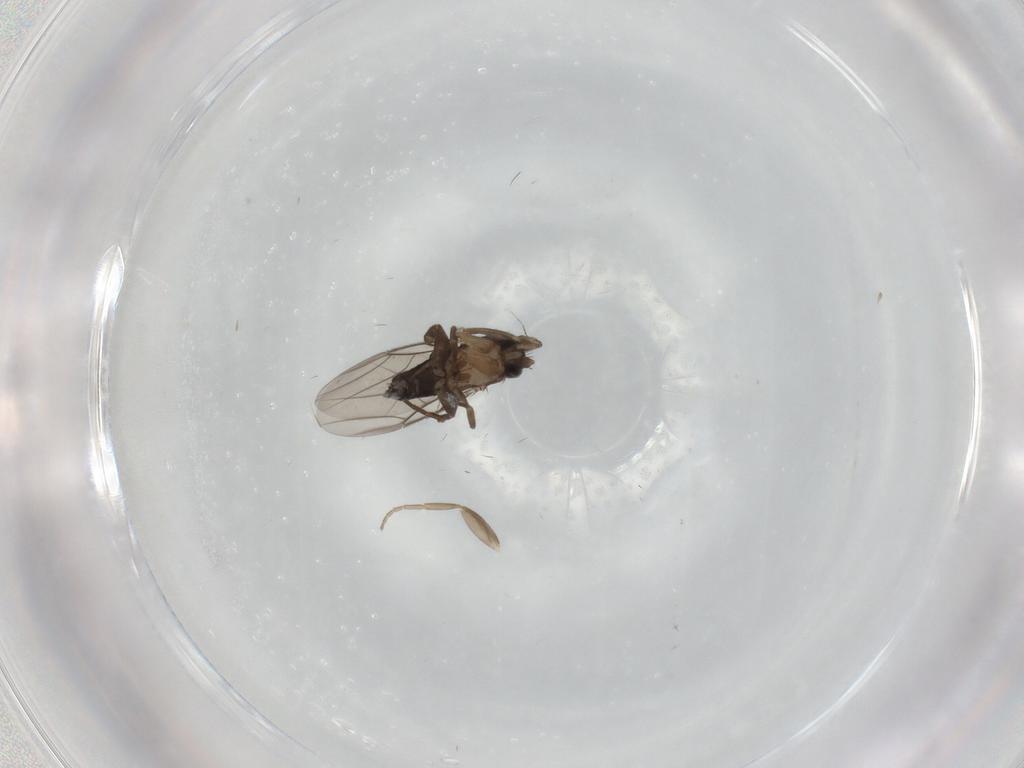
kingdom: Animalia
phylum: Arthropoda
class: Insecta
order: Diptera
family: Phoridae
